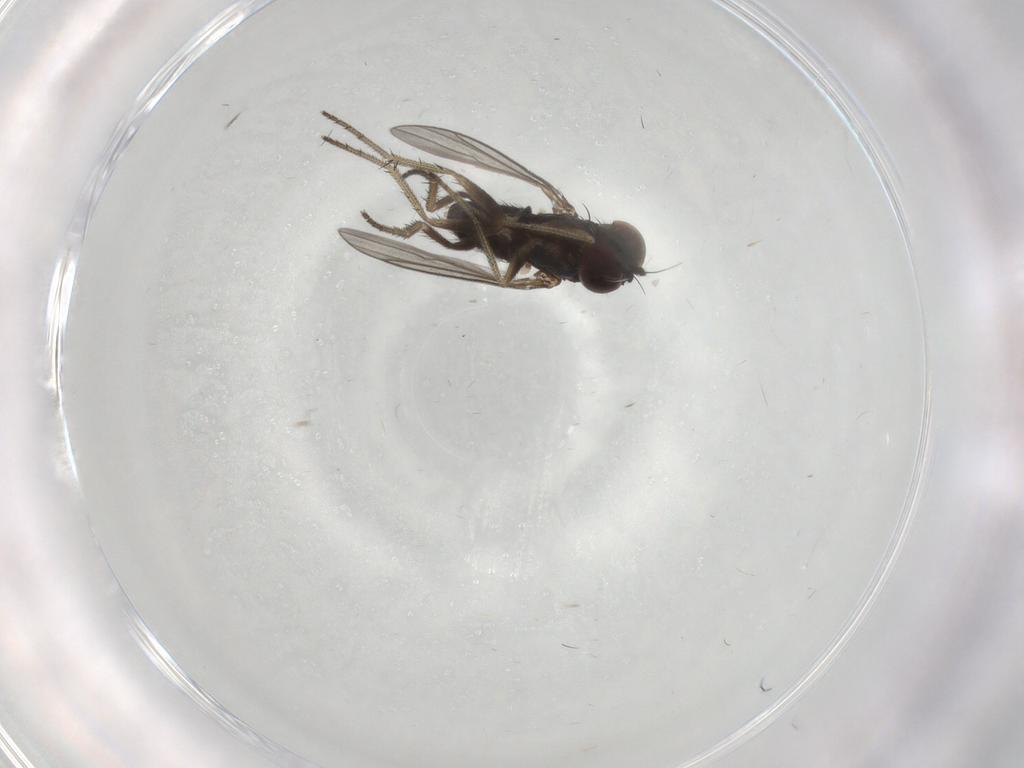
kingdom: Animalia
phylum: Arthropoda
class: Insecta
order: Diptera
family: Dolichopodidae
